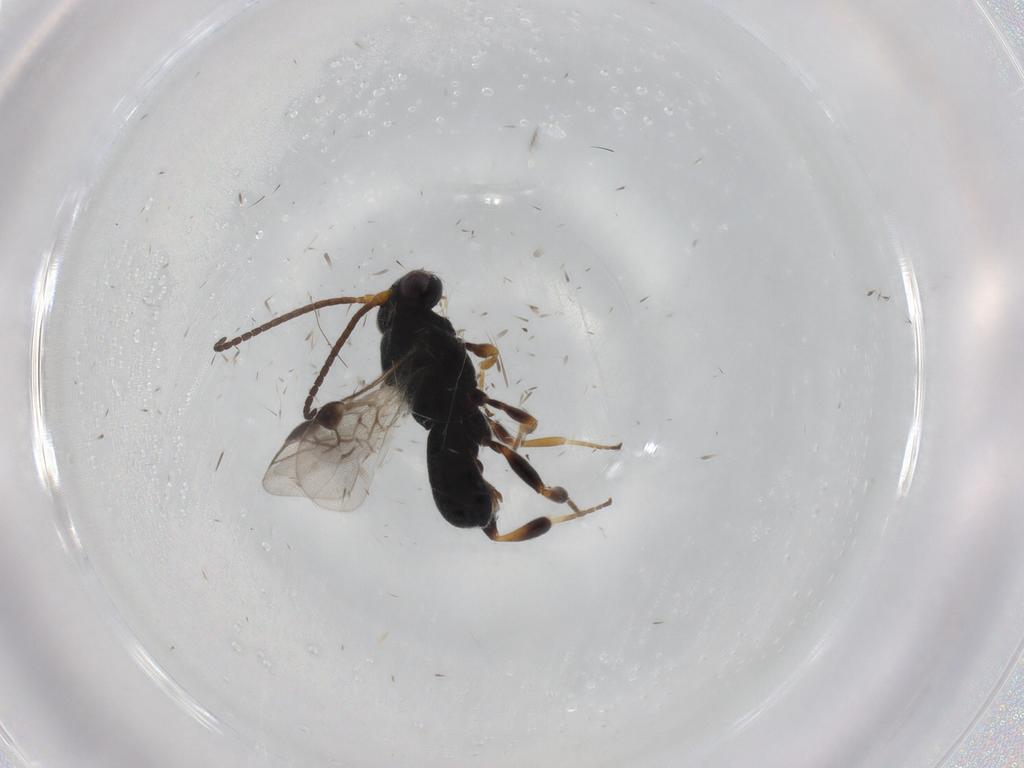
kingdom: Animalia
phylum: Arthropoda
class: Insecta
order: Hymenoptera
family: Braconidae
